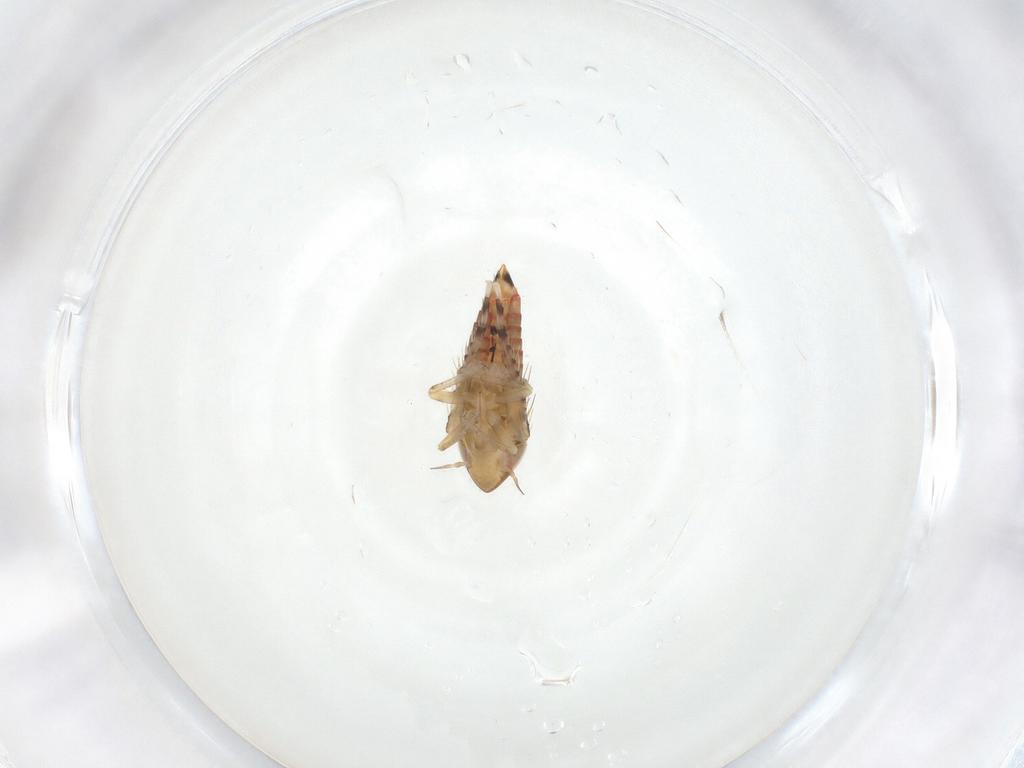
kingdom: Animalia
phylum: Arthropoda
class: Insecta
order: Hemiptera
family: Cicadellidae
